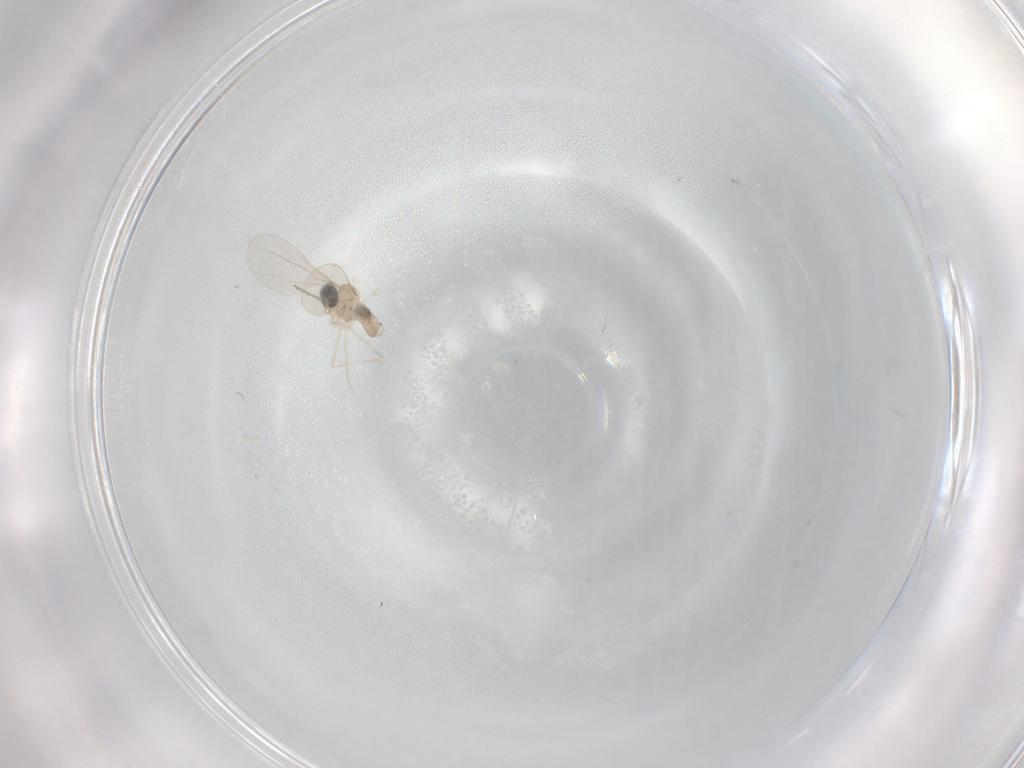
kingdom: Animalia
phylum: Arthropoda
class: Insecta
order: Diptera
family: Cecidomyiidae
